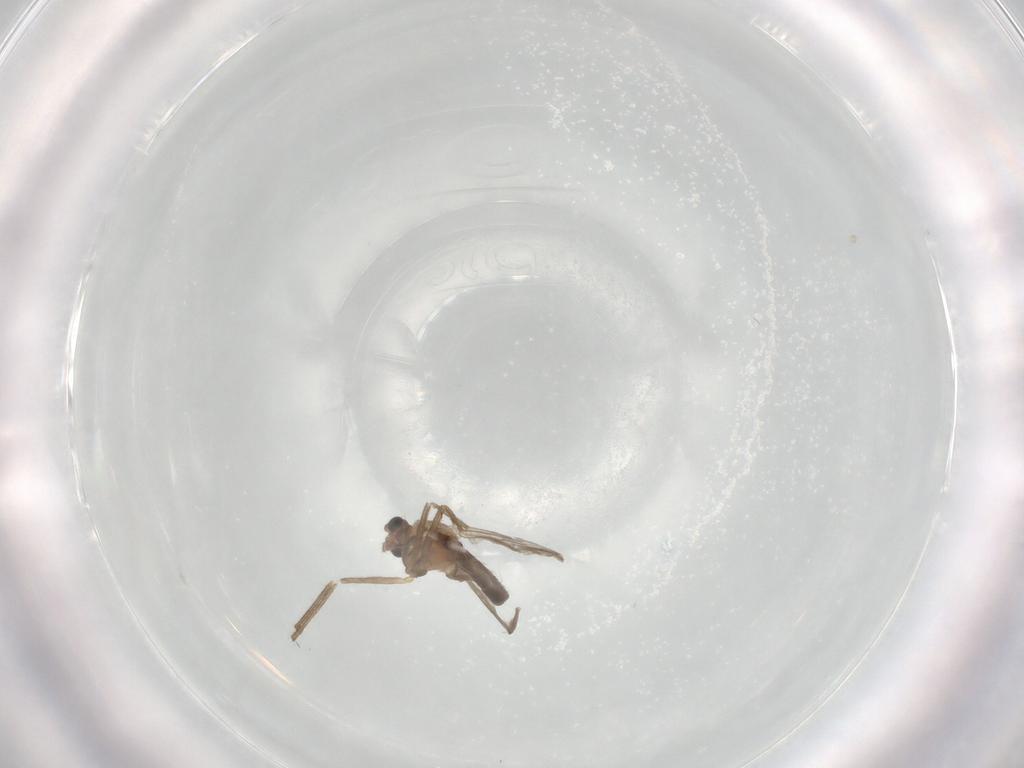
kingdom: Animalia
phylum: Arthropoda
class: Insecta
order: Diptera
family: Chironomidae
